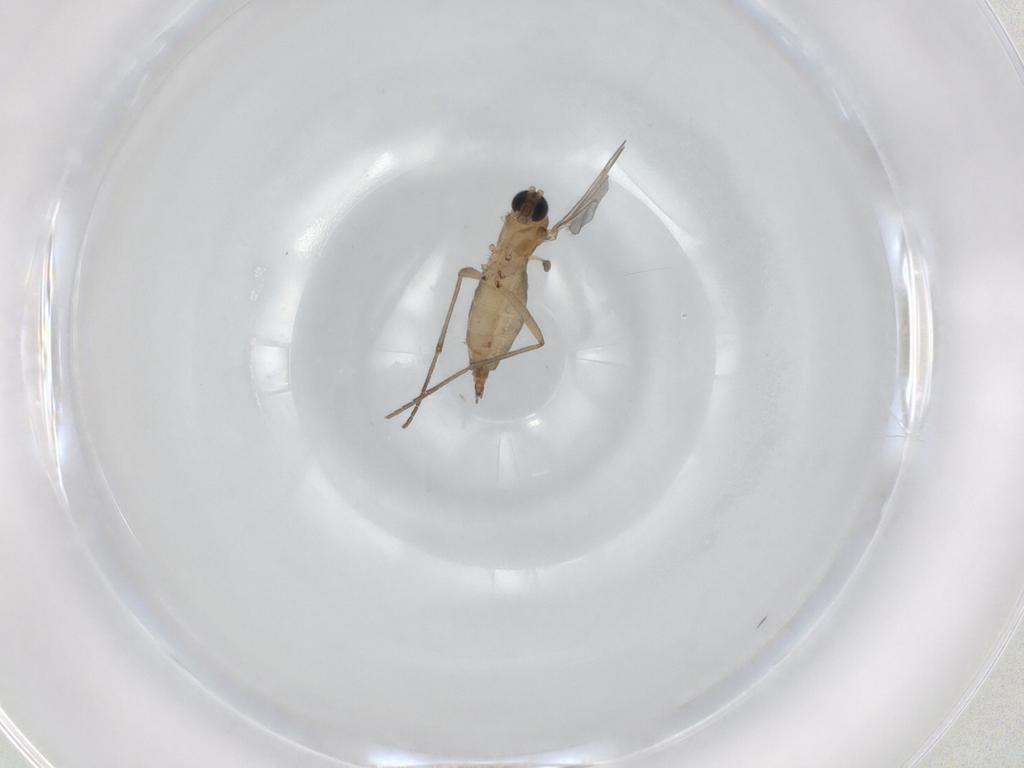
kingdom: Animalia
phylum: Arthropoda
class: Insecta
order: Diptera
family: Sciaridae
